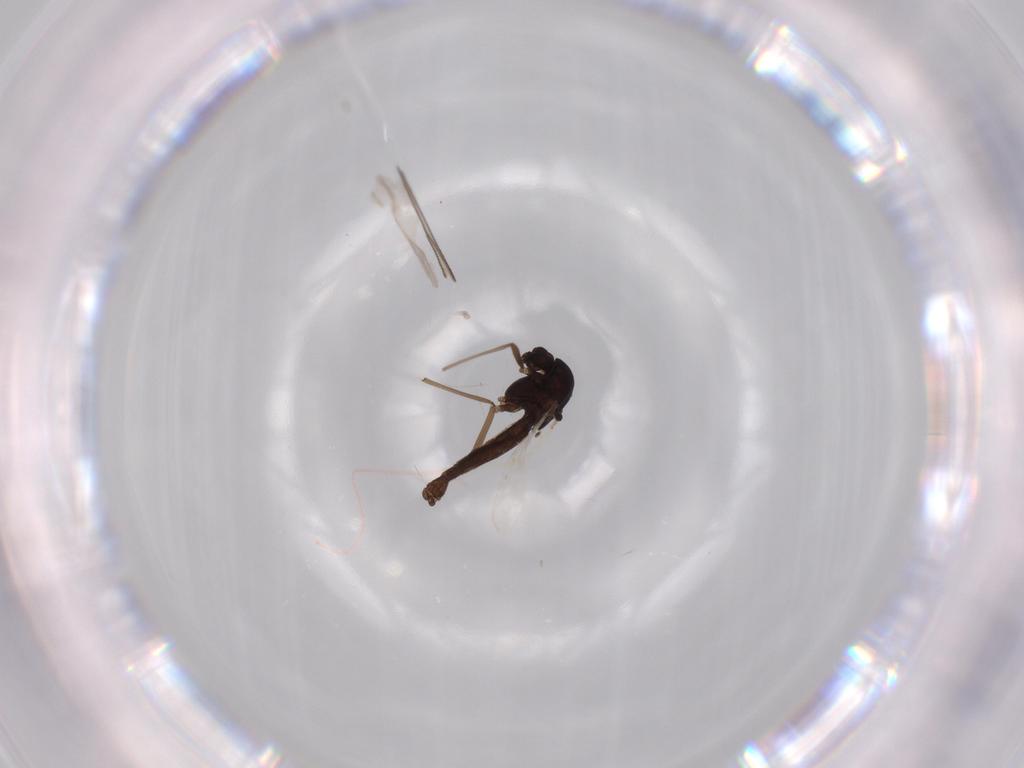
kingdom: Animalia
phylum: Arthropoda
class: Insecta
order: Diptera
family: Chironomidae
